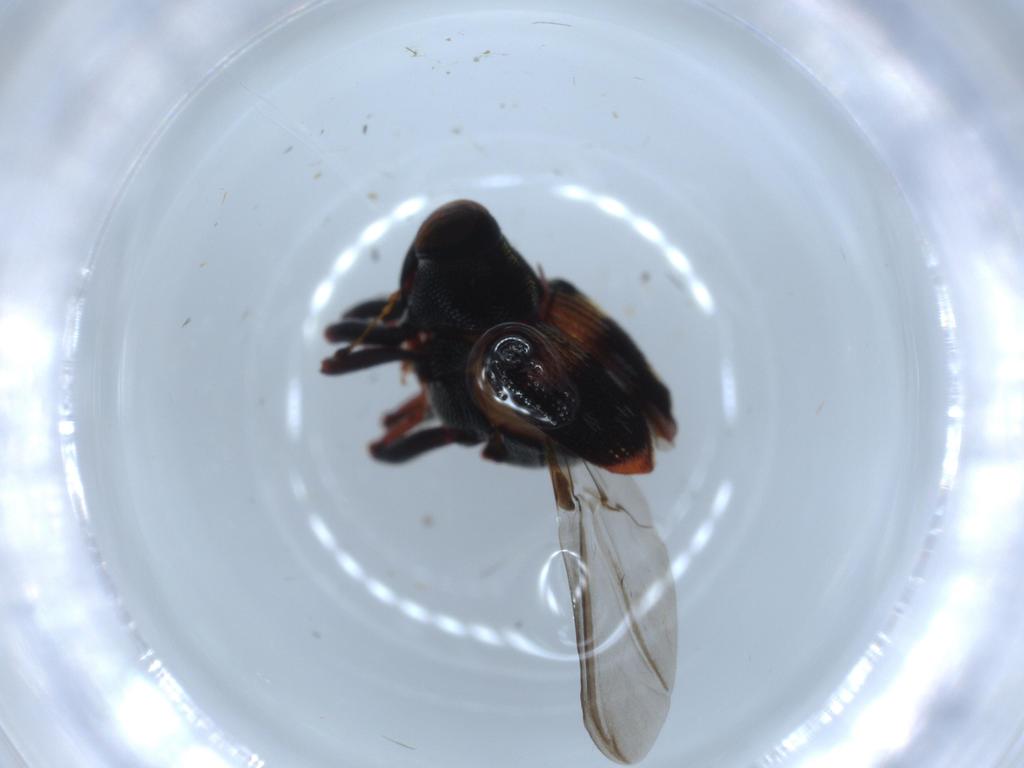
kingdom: Animalia
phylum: Arthropoda
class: Insecta
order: Coleoptera
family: Curculionidae
